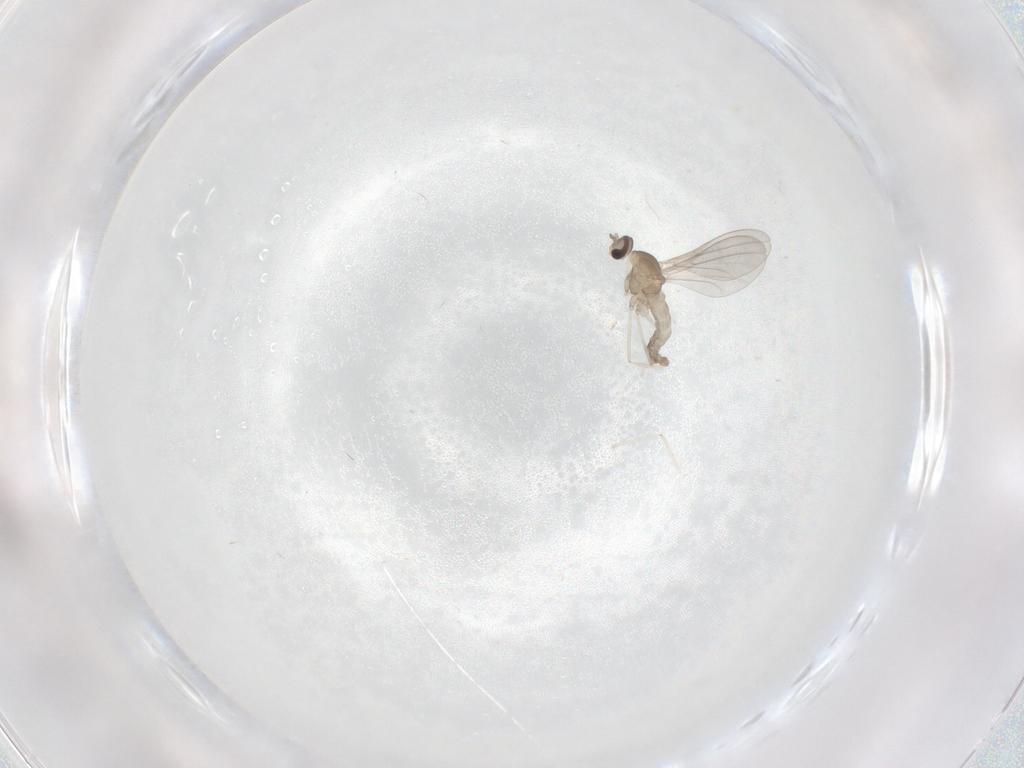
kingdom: Animalia
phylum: Arthropoda
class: Insecta
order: Diptera
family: Cecidomyiidae
